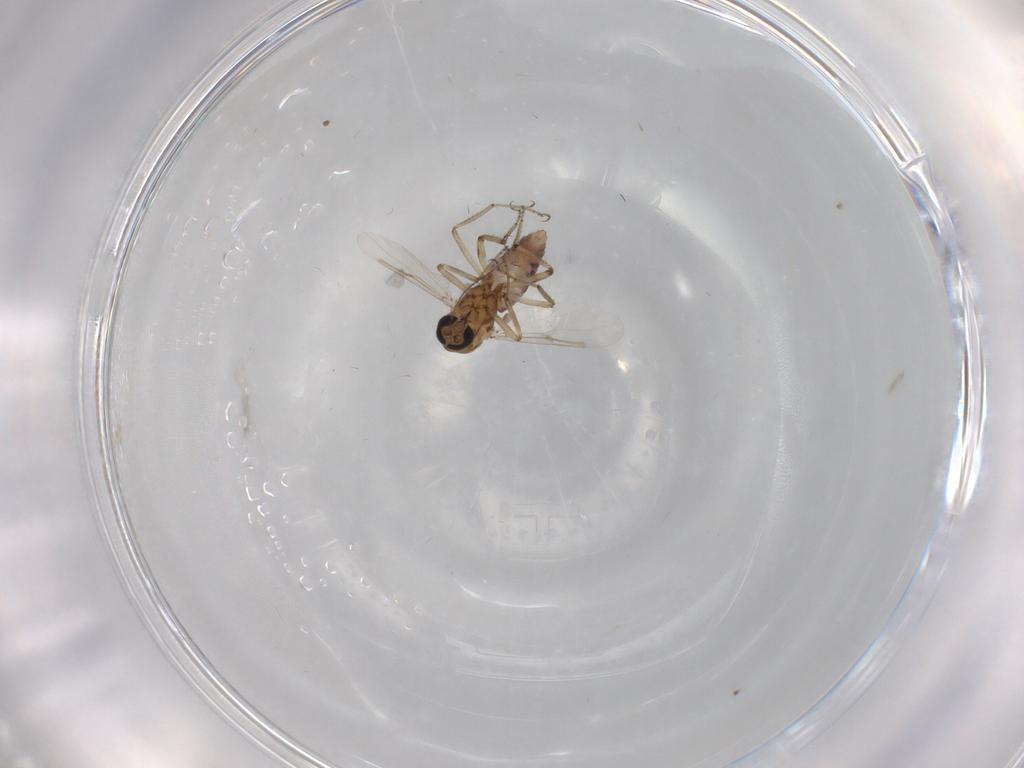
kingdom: Animalia
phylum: Arthropoda
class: Insecta
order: Diptera
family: Ceratopogonidae
